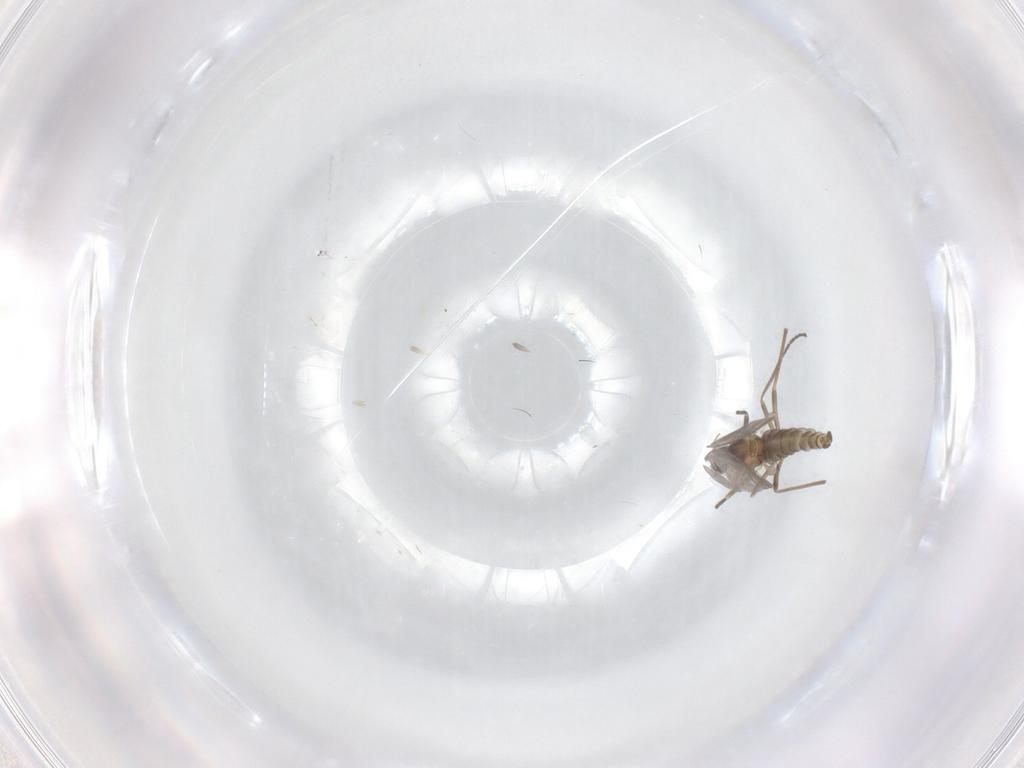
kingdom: Animalia
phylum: Arthropoda
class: Insecta
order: Diptera
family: Cecidomyiidae
